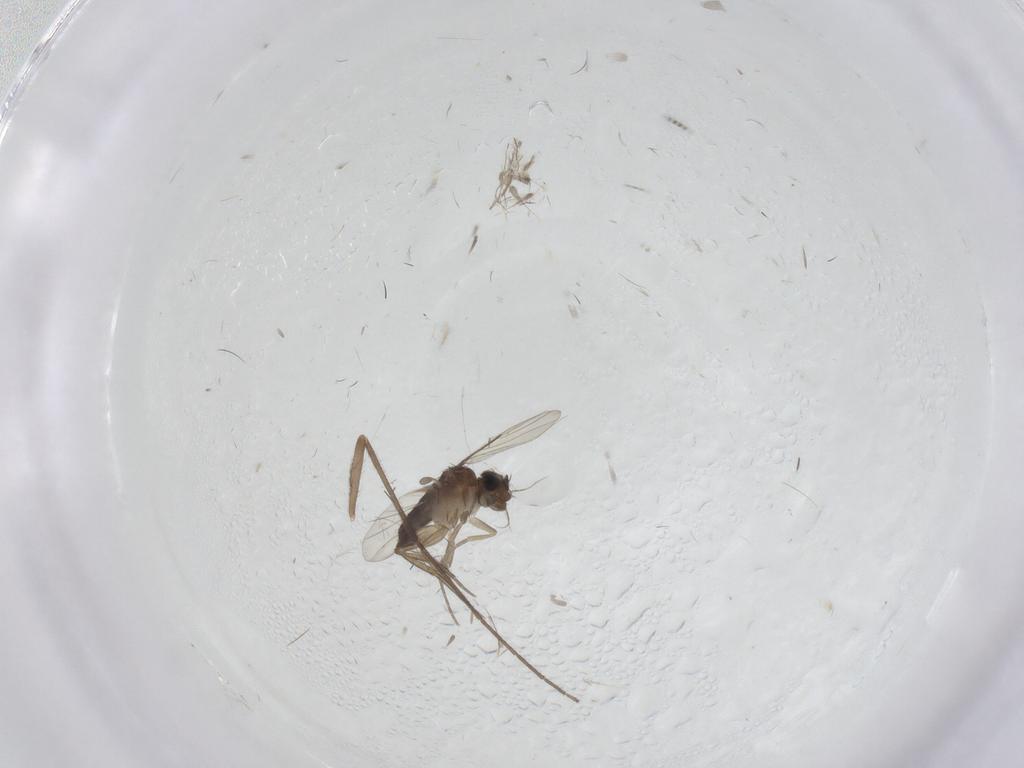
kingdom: Animalia
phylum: Arthropoda
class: Insecta
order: Diptera
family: Phoridae
